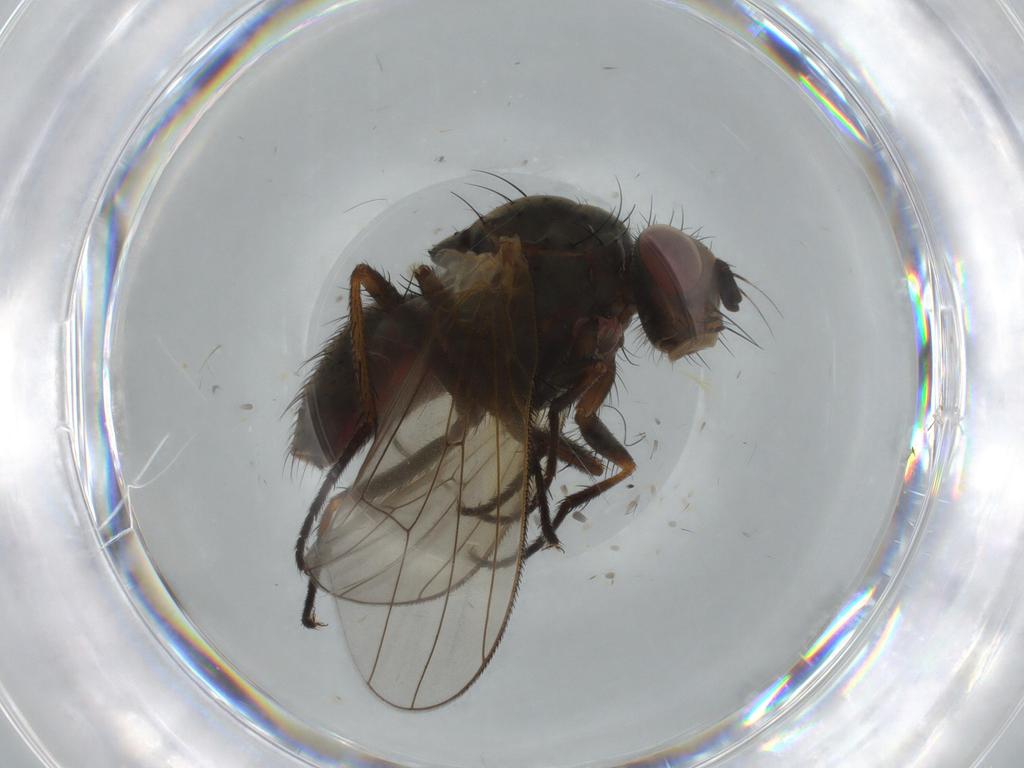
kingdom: Animalia
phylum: Arthropoda
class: Insecta
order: Diptera
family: Anthomyiidae
